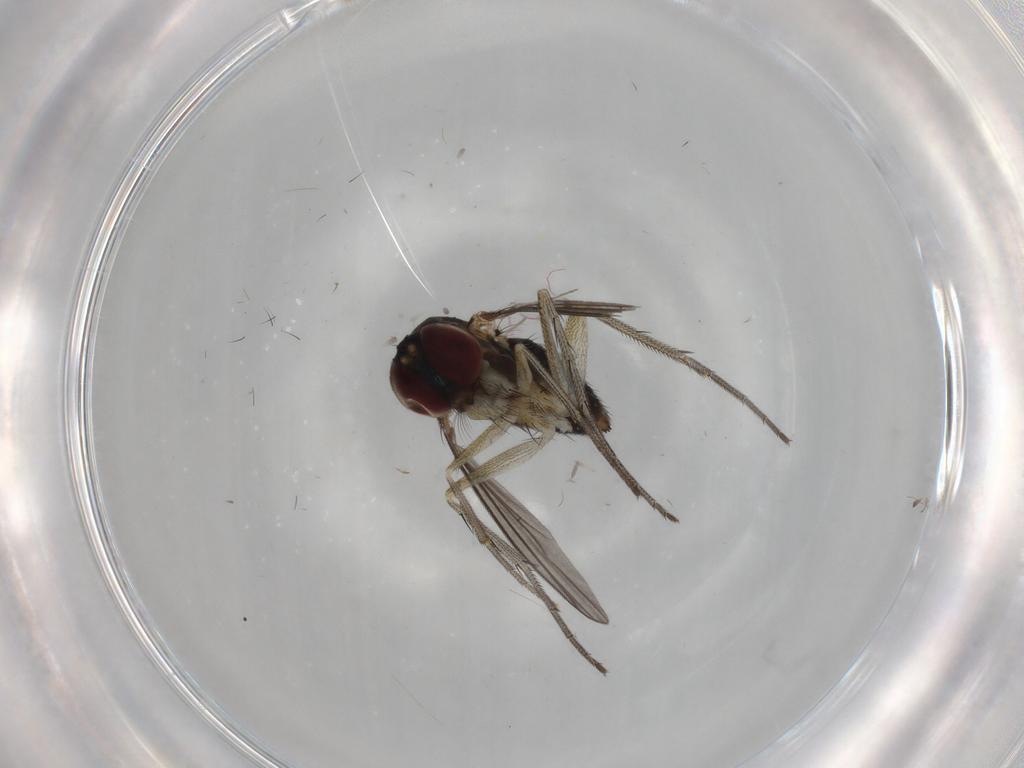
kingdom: Animalia
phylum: Arthropoda
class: Insecta
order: Diptera
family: Dolichopodidae
